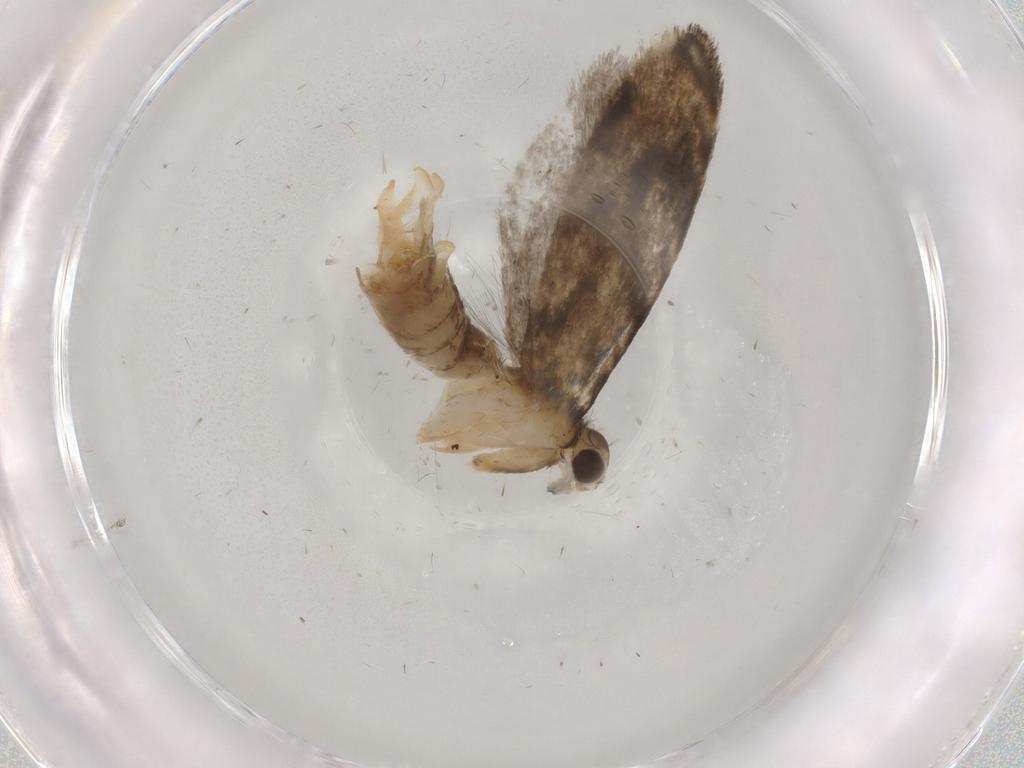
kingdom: Animalia
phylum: Arthropoda
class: Insecta
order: Lepidoptera
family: Tineidae
